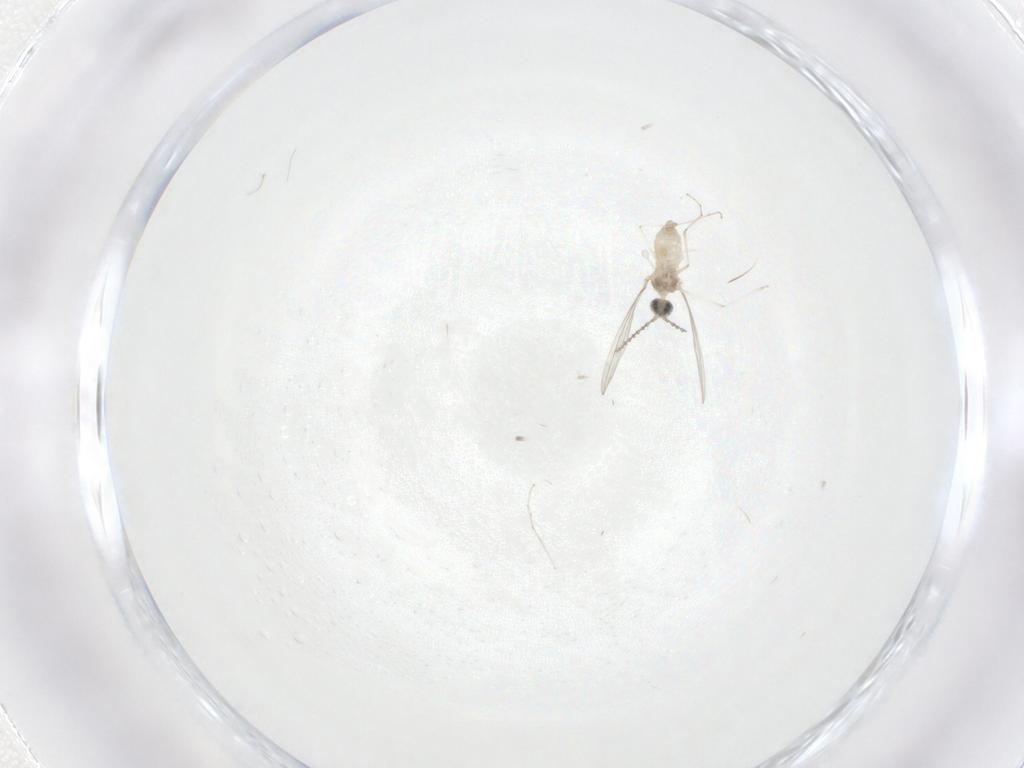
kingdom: Animalia
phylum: Arthropoda
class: Insecta
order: Diptera
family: Cecidomyiidae
